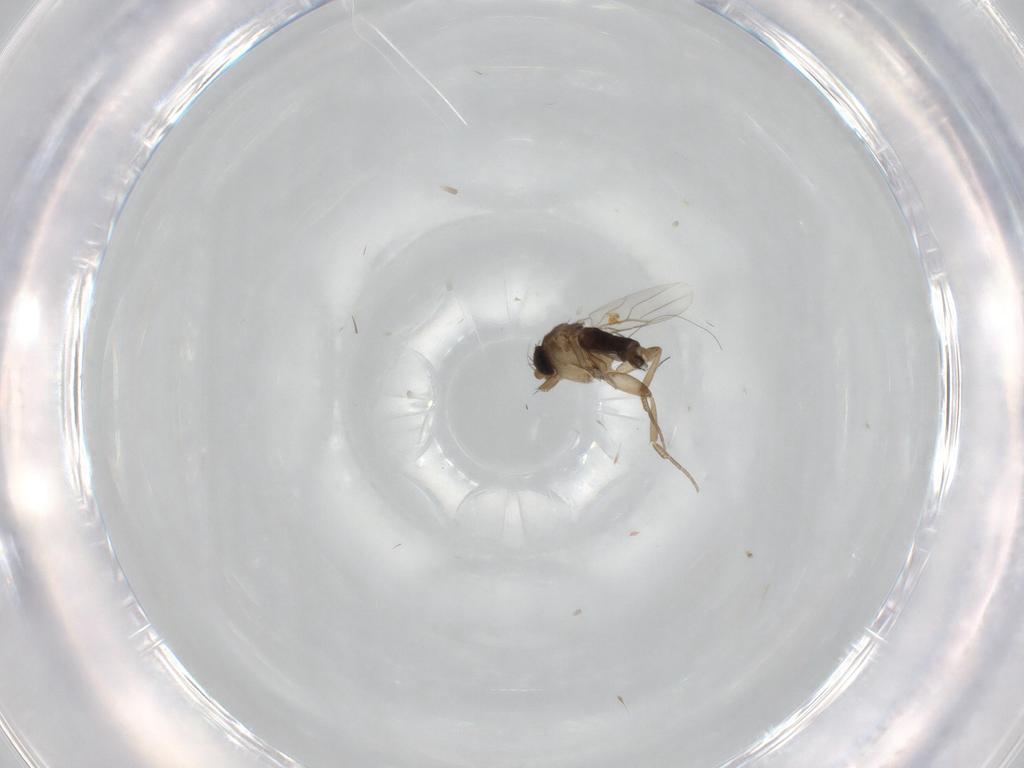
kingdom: Animalia
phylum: Arthropoda
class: Insecta
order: Diptera
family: Phoridae
